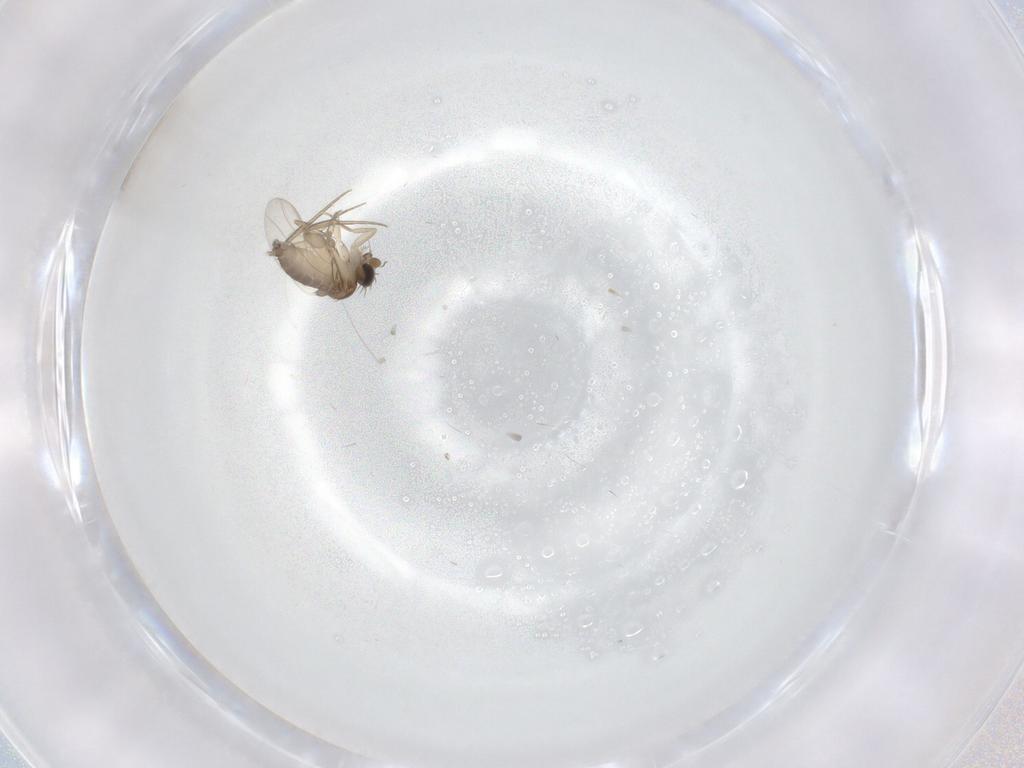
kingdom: Animalia
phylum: Arthropoda
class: Insecta
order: Diptera
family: Phoridae
